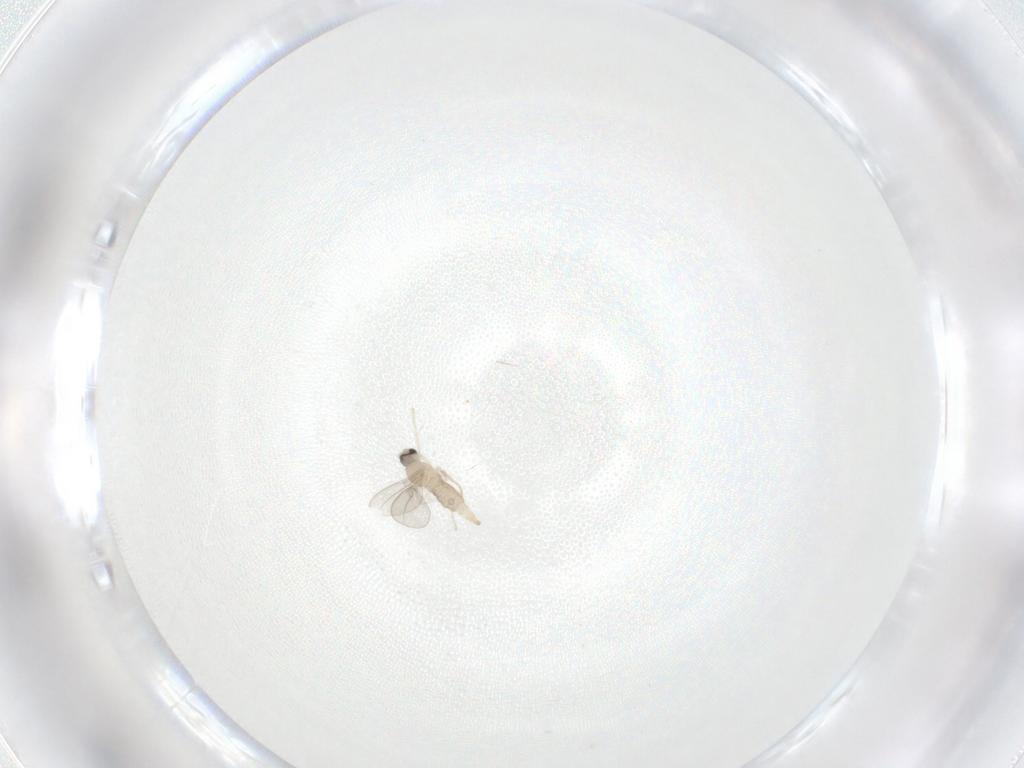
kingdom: Animalia
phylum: Arthropoda
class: Insecta
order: Diptera
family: Cecidomyiidae
